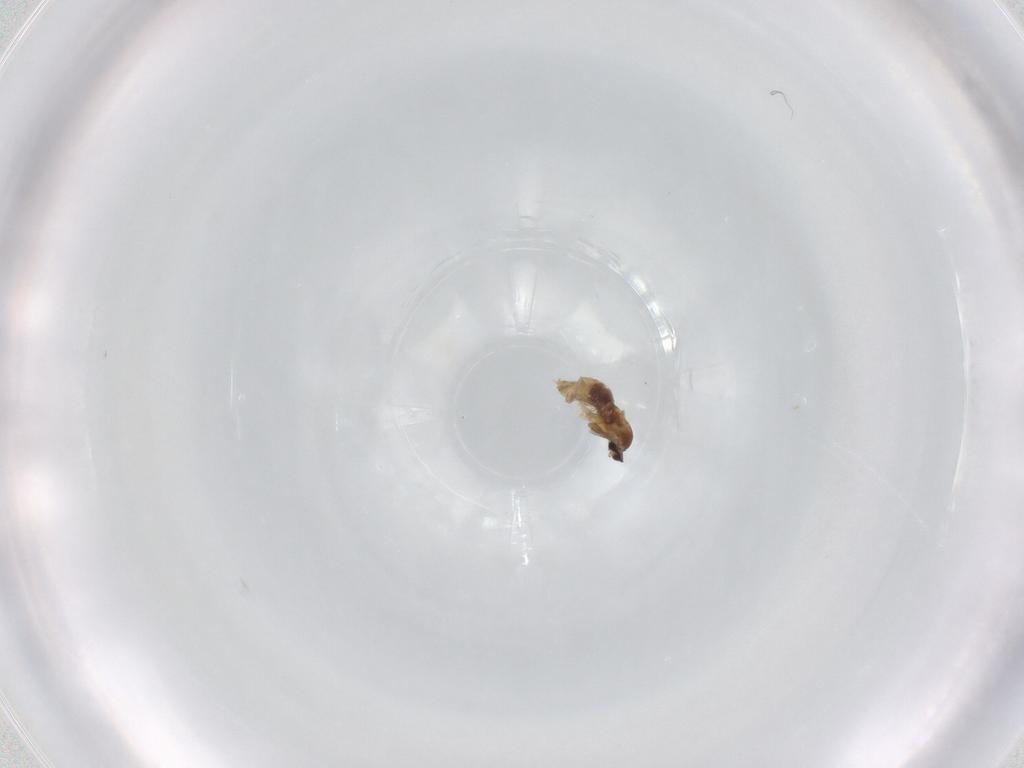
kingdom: Animalia
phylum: Arthropoda
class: Insecta
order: Diptera
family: Cecidomyiidae
